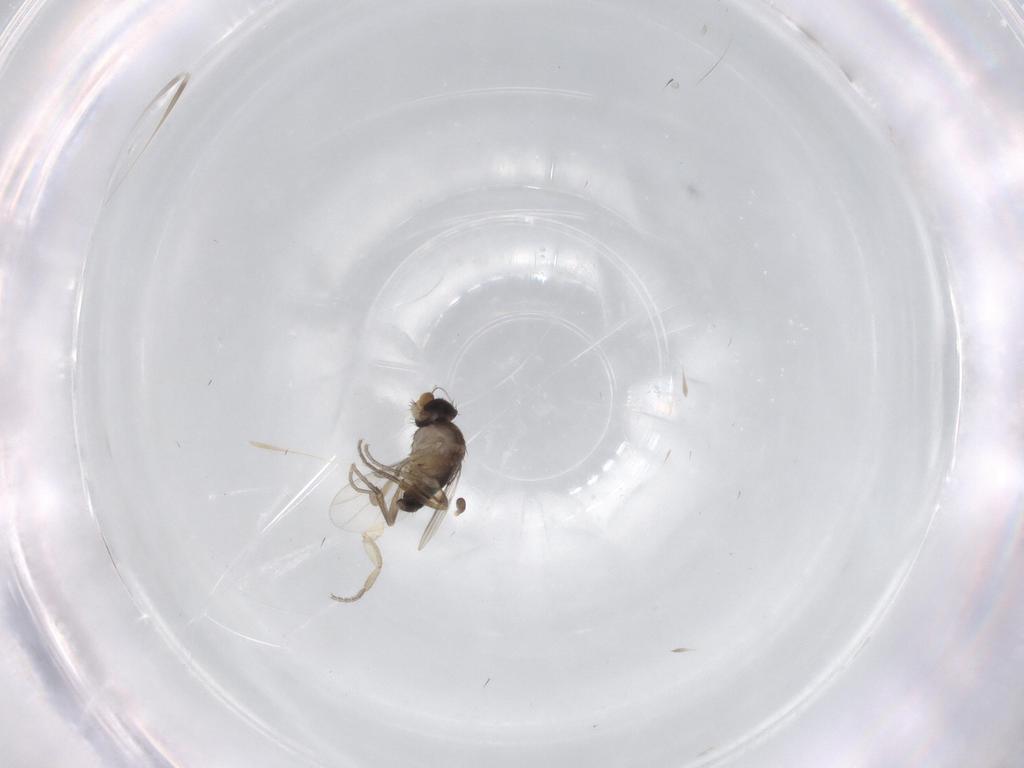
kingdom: Animalia
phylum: Arthropoda
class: Insecta
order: Diptera
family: Phoridae
